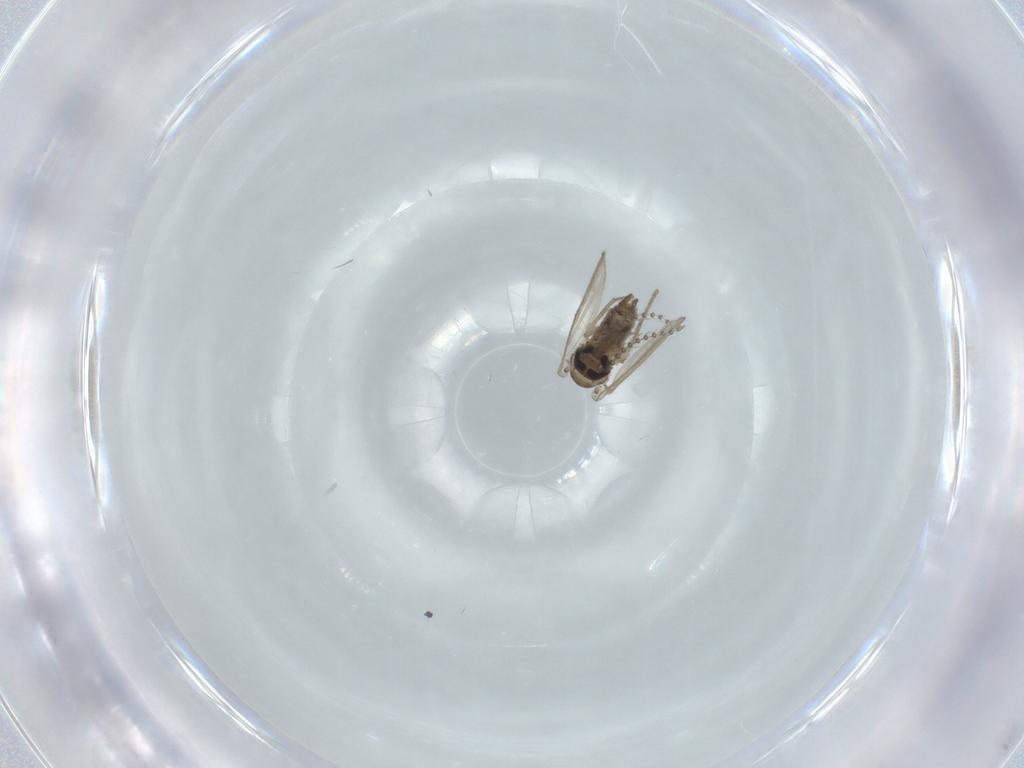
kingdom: Animalia
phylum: Arthropoda
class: Insecta
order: Diptera
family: Psychodidae
